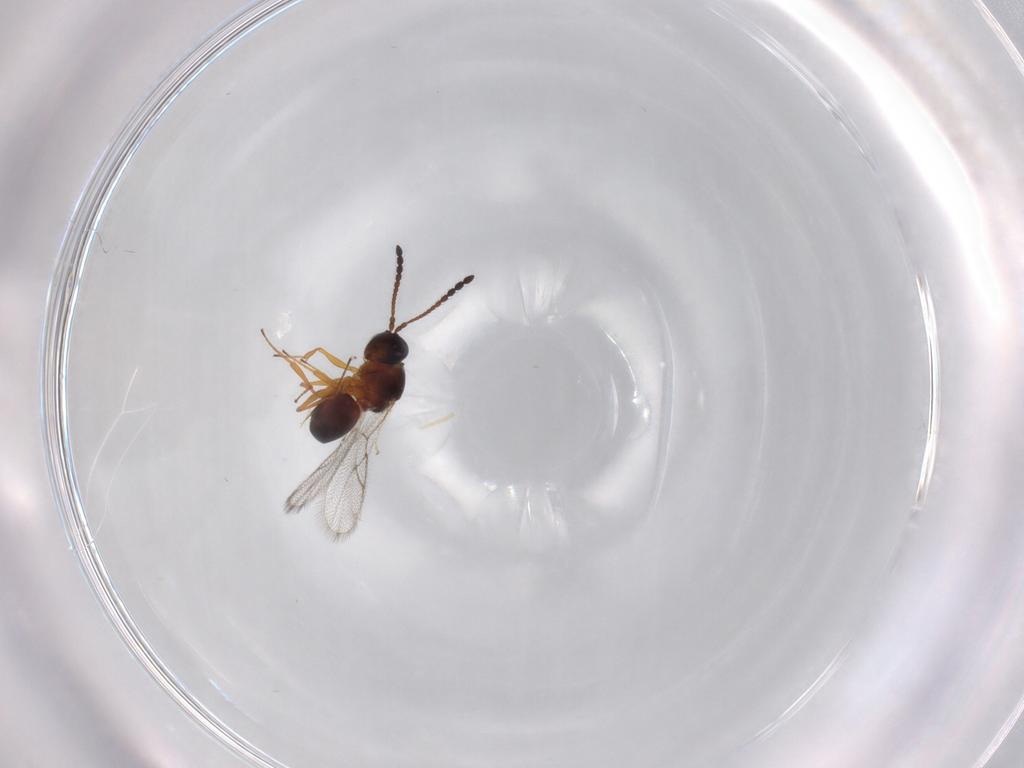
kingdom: Animalia
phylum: Arthropoda
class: Insecta
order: Hymenoptera
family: Figitidae
